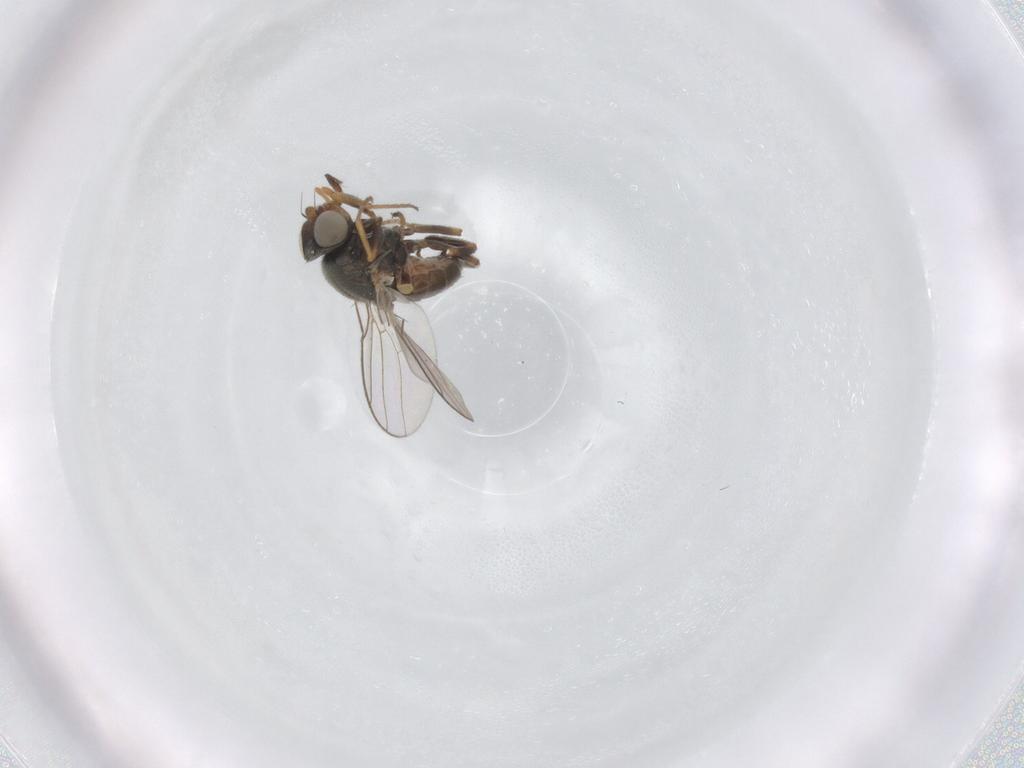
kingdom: Animalia
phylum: Arthropoda
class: Insecta
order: Diptera
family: Chloropidae
